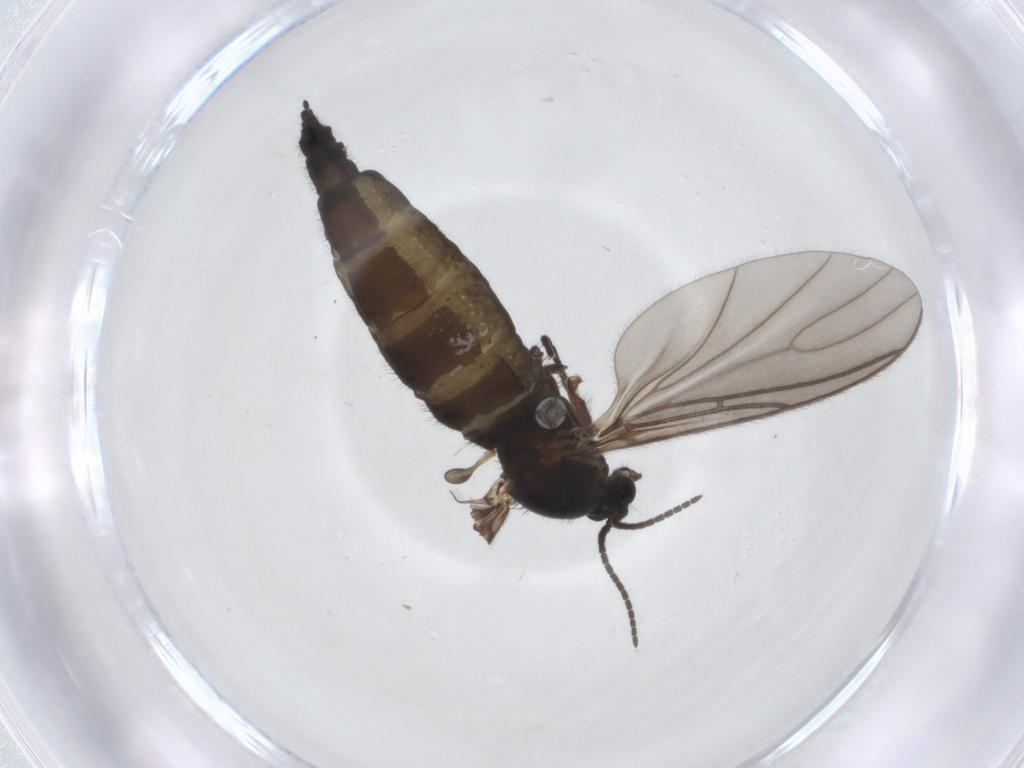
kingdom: Animalia
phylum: Arthropoda
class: Insecta
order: Diptera
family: Sciaridae
